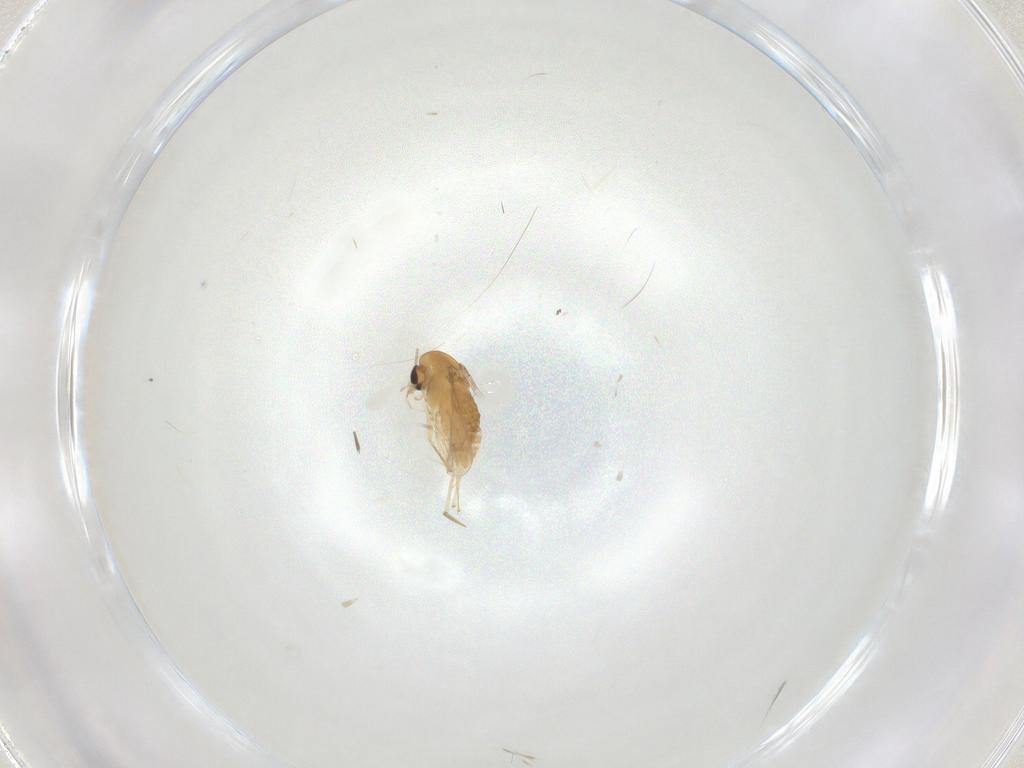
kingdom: Animalia
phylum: Arthropoda
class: Insecta
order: Diptera
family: Chironomidae
